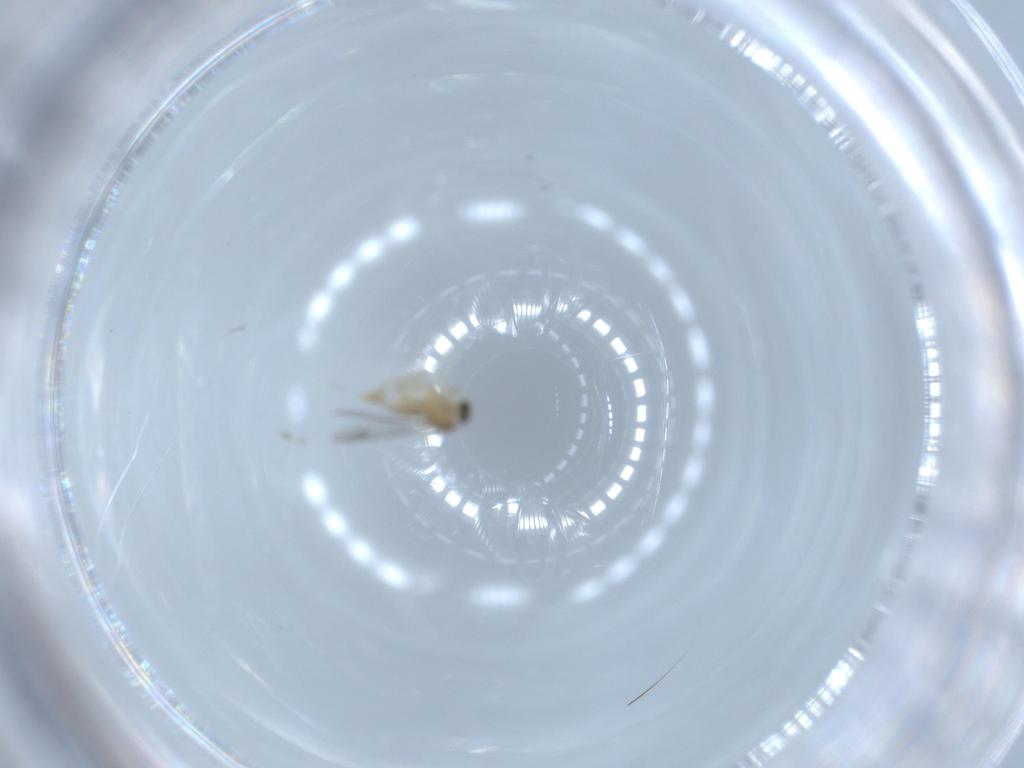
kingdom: Animalia
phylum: Arthropoda
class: Insecta
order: Diptera
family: Cecidomyiidae
